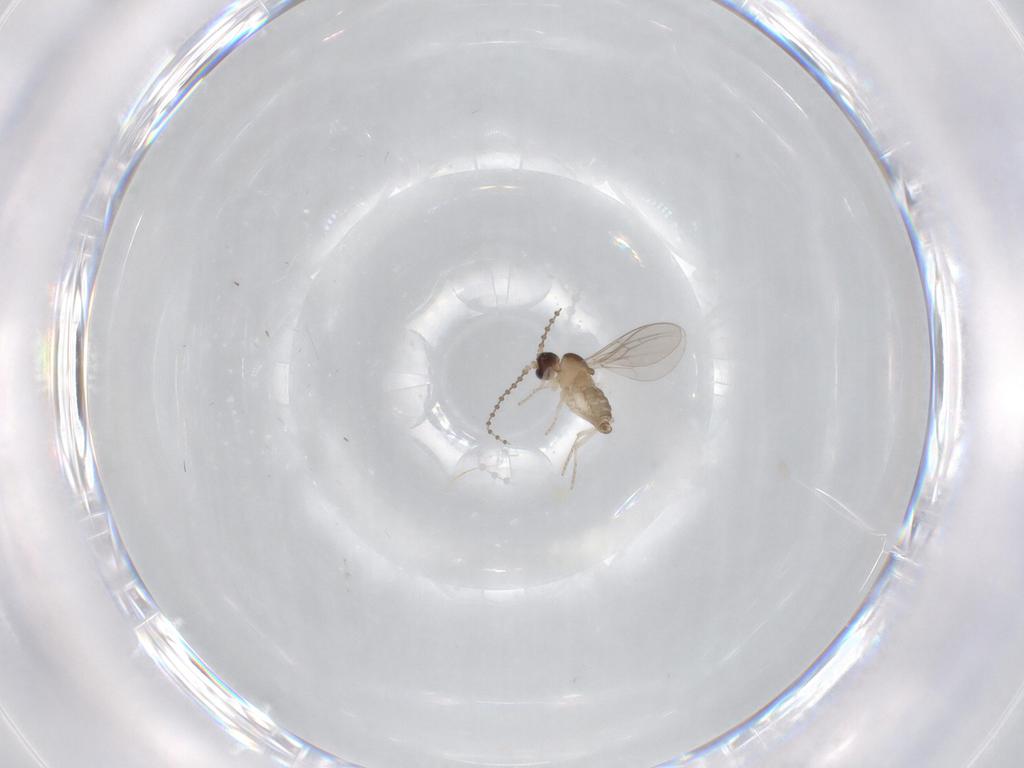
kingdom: Animalia
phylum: Arthropoda
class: Insecta
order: Diptera
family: Cecidomyiidae
